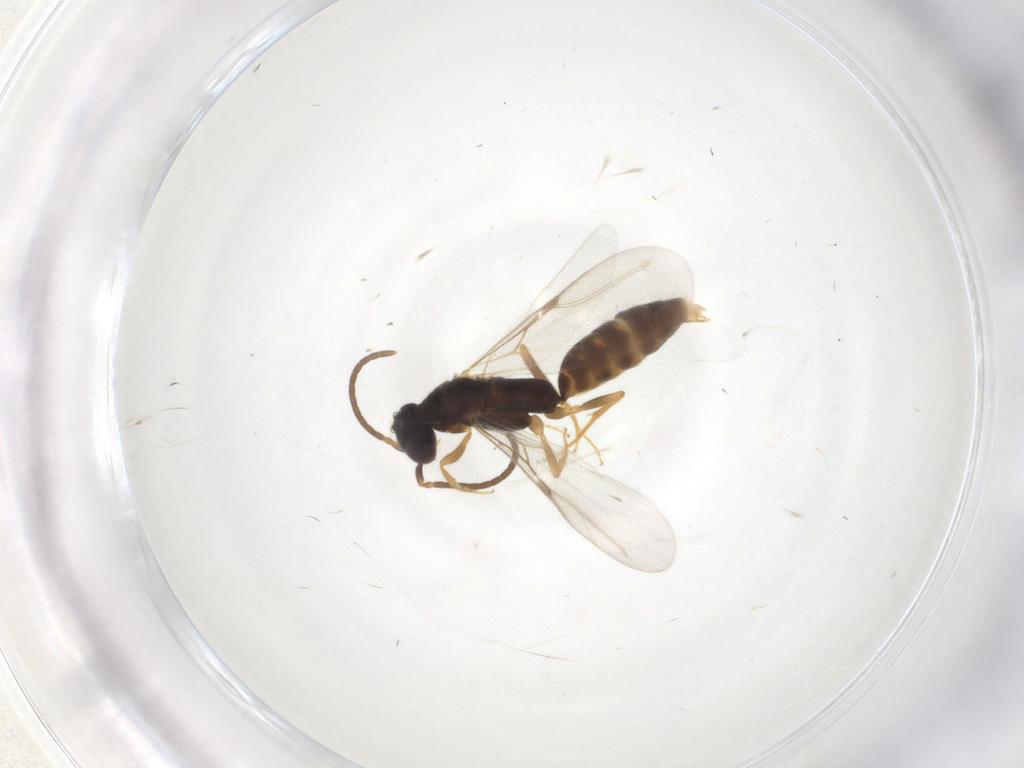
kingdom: Animalia
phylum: Arthropoda
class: Insecta
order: Hymenoptera
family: Bethylidae
